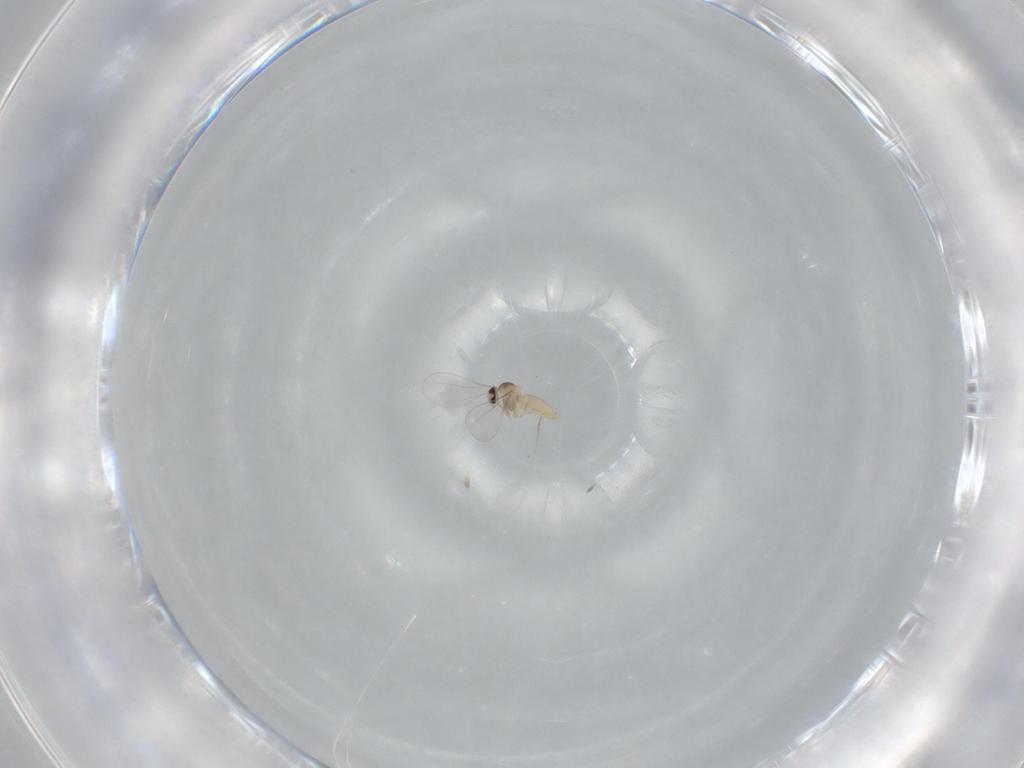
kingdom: Animalia
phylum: Arthropoda
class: Insecta
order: Diptera
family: Cecidomyiidae
